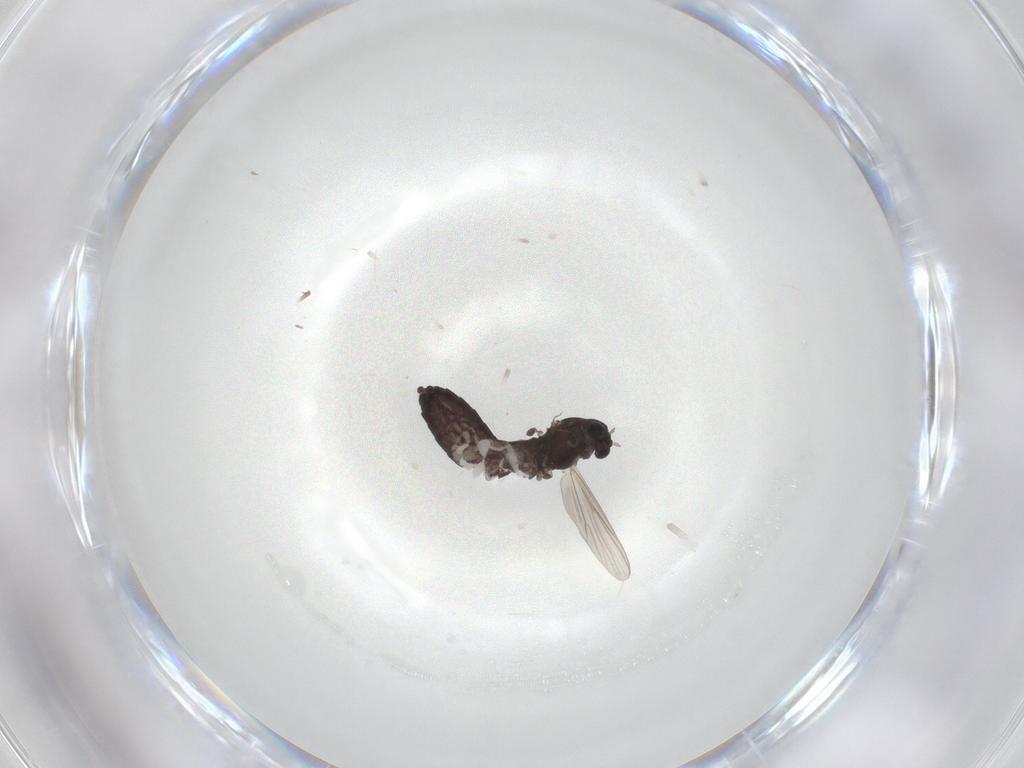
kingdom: Animalia
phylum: Arthropoda
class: Insecta
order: Diptera
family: Chironomidae
